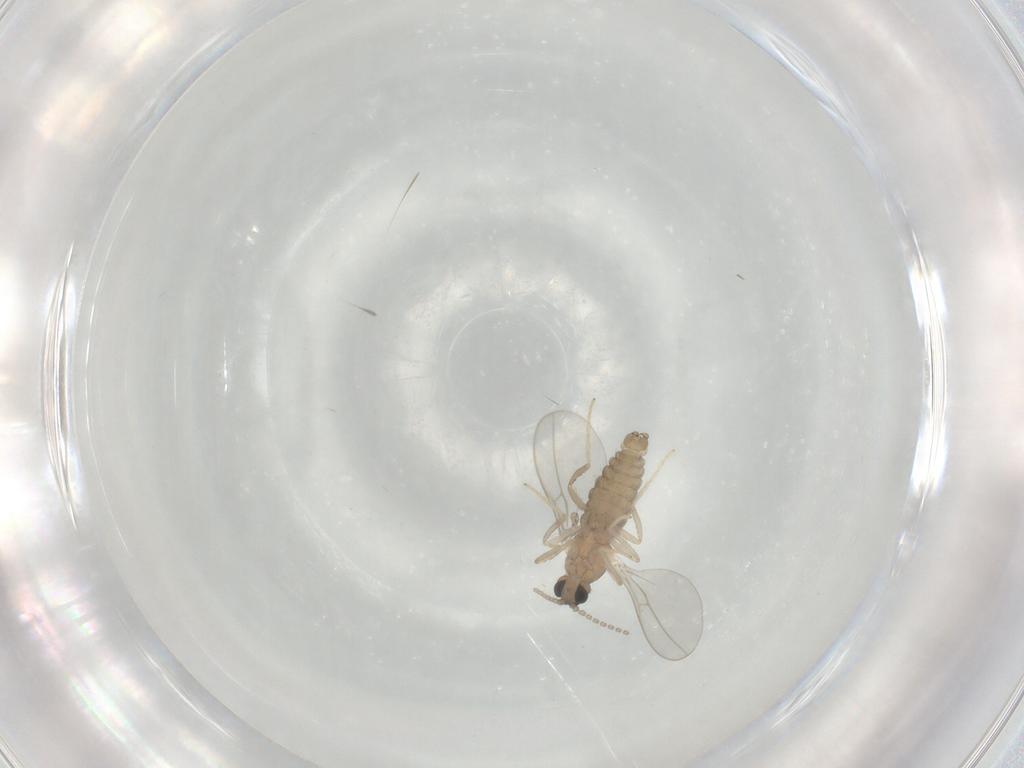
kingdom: Animalia
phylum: Arthropoda
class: Insecta
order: Diptera
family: Cecidomyiidae
